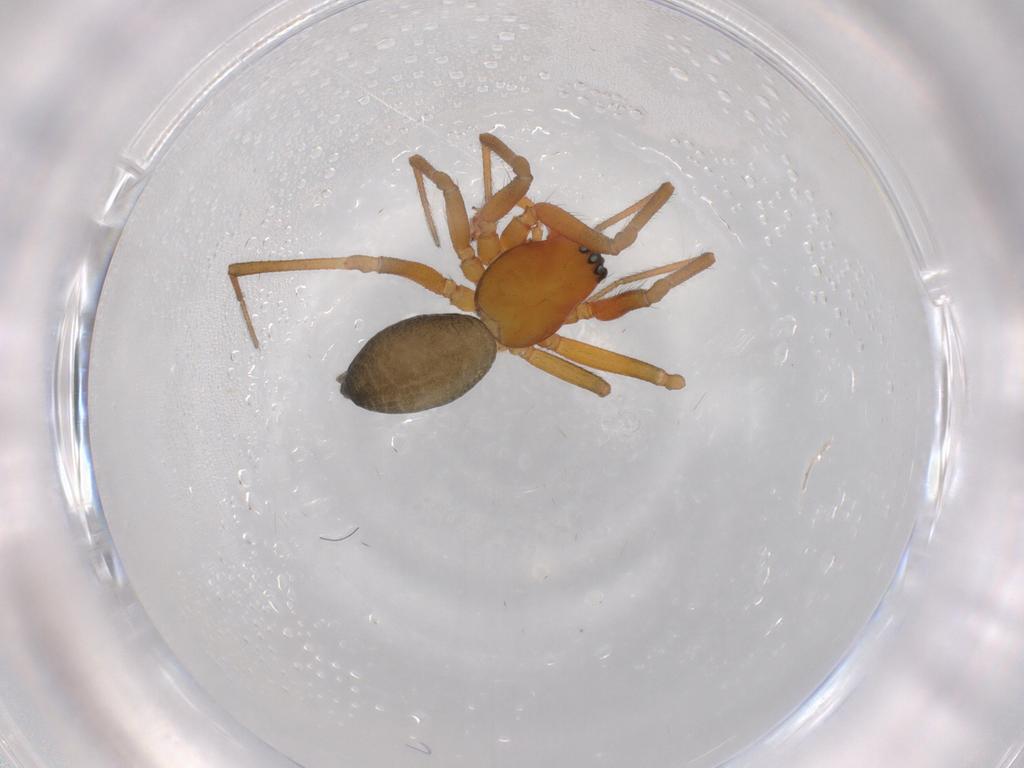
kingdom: Animalia
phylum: Arthropoda
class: Arachnida
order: Araneae
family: Linyphiidae
